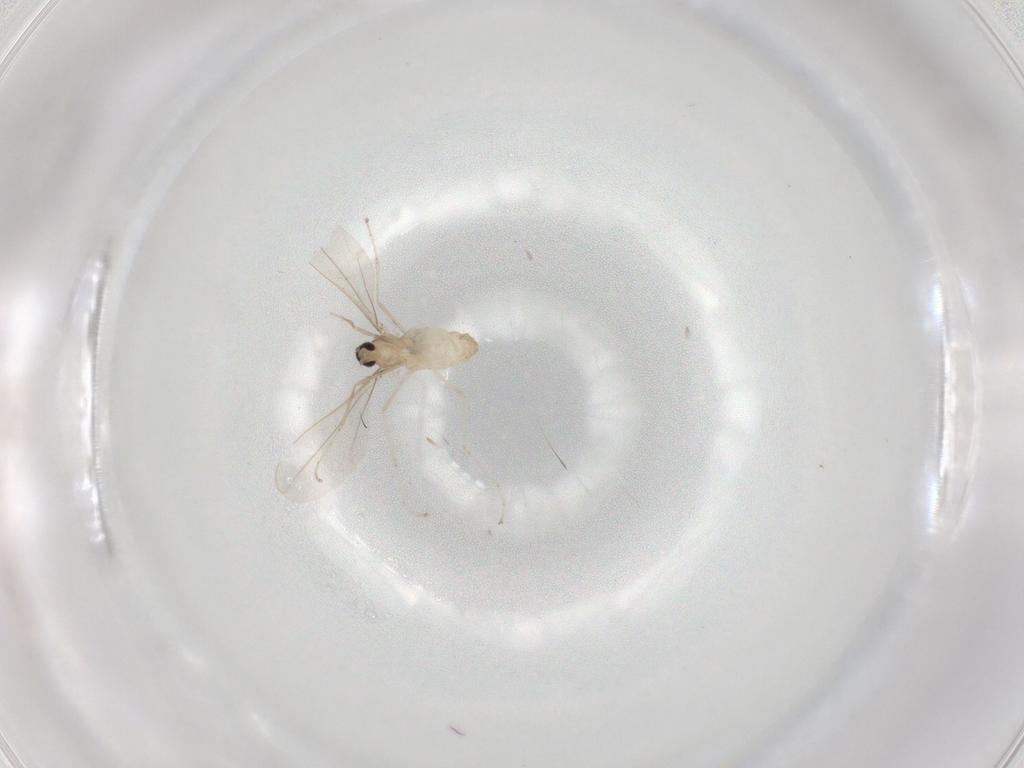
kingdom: Animalia
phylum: Arthropoda
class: Insecta
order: Diptera
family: Cecidomyiidae
